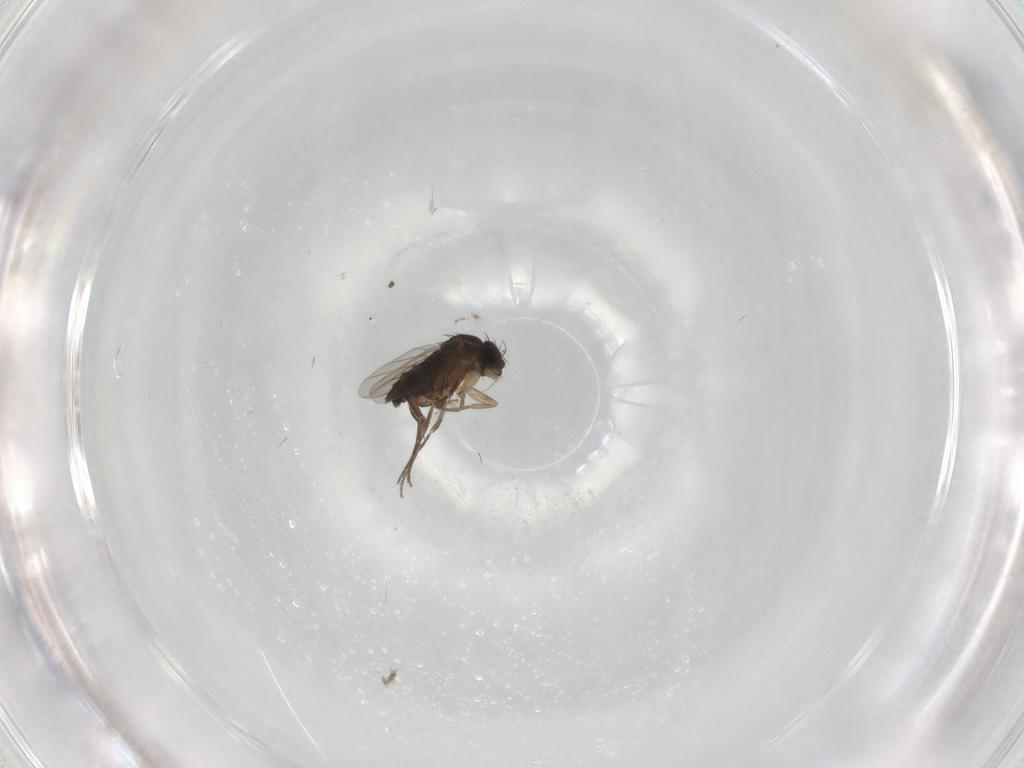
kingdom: Animalia
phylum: Arthropoda
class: Insecta
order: Diptera
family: Phoridae
